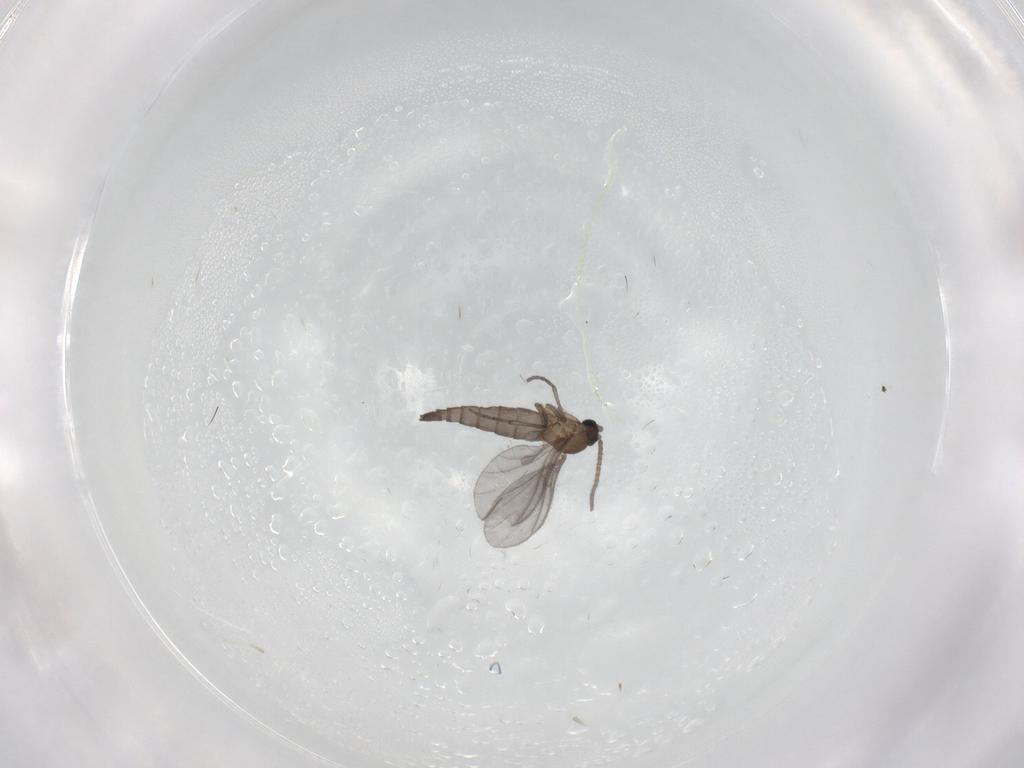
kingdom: Animalia
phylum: Arthropoda
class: Insecta
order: Diptera
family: Sciaridae
